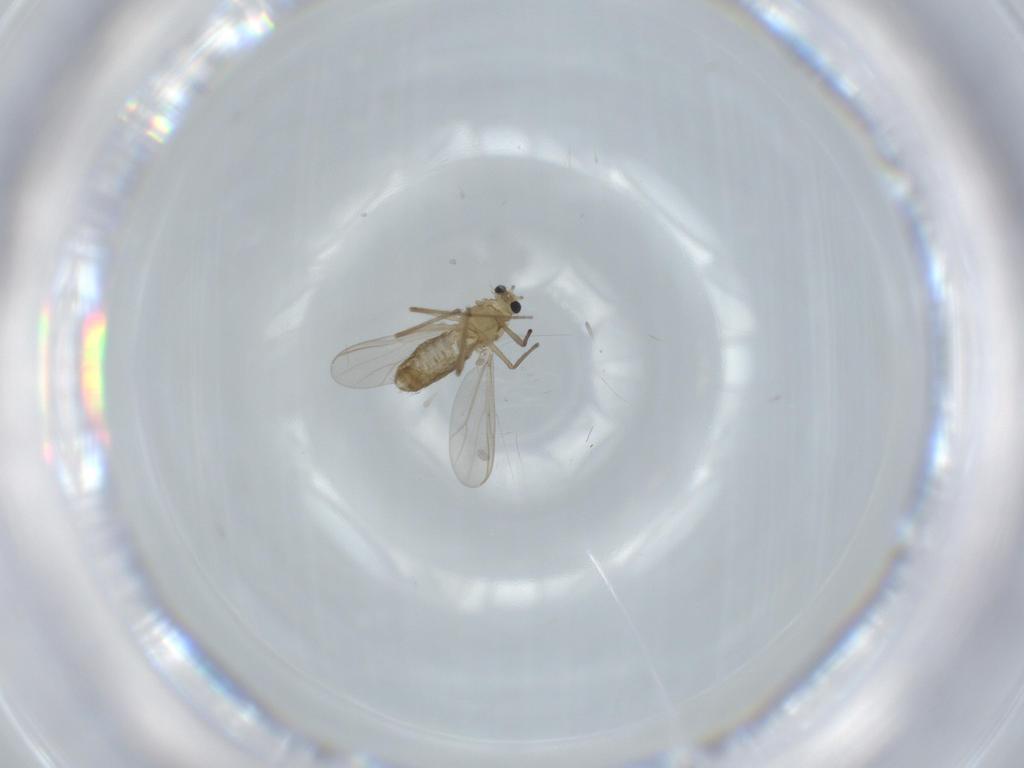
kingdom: Animalia
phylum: Arthropoda
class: Insecta
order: Diptera
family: Chironomidae
